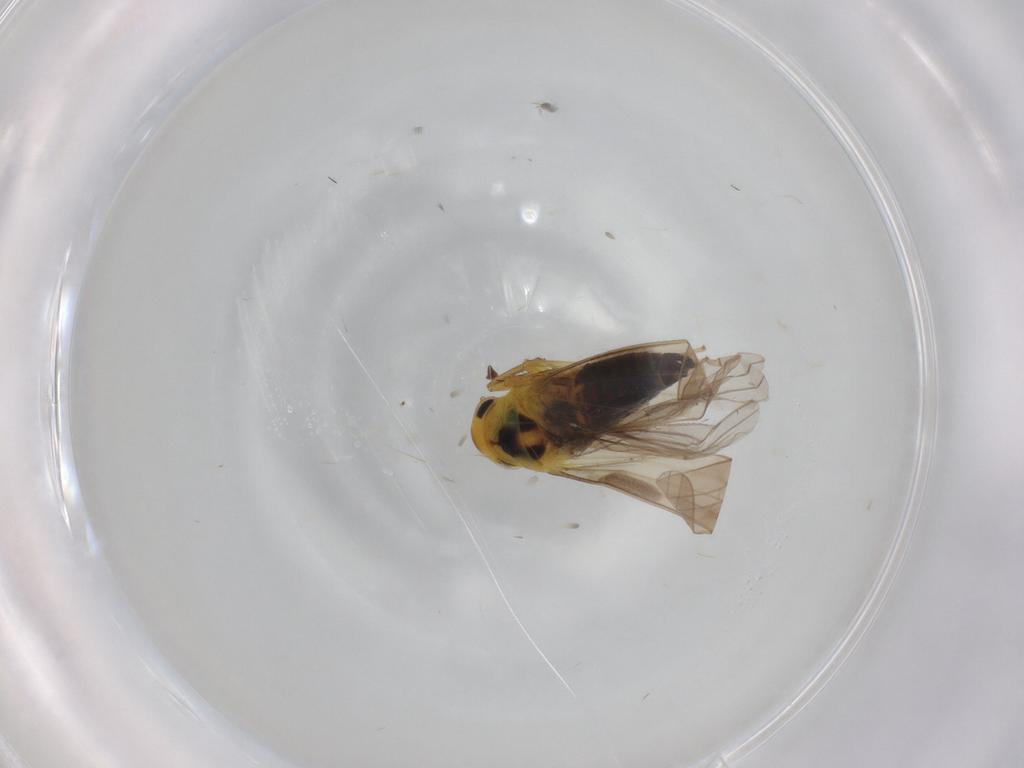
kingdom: Animalia
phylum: Arthropoda
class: Insecta
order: Hemiptera
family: Cicadellidae
